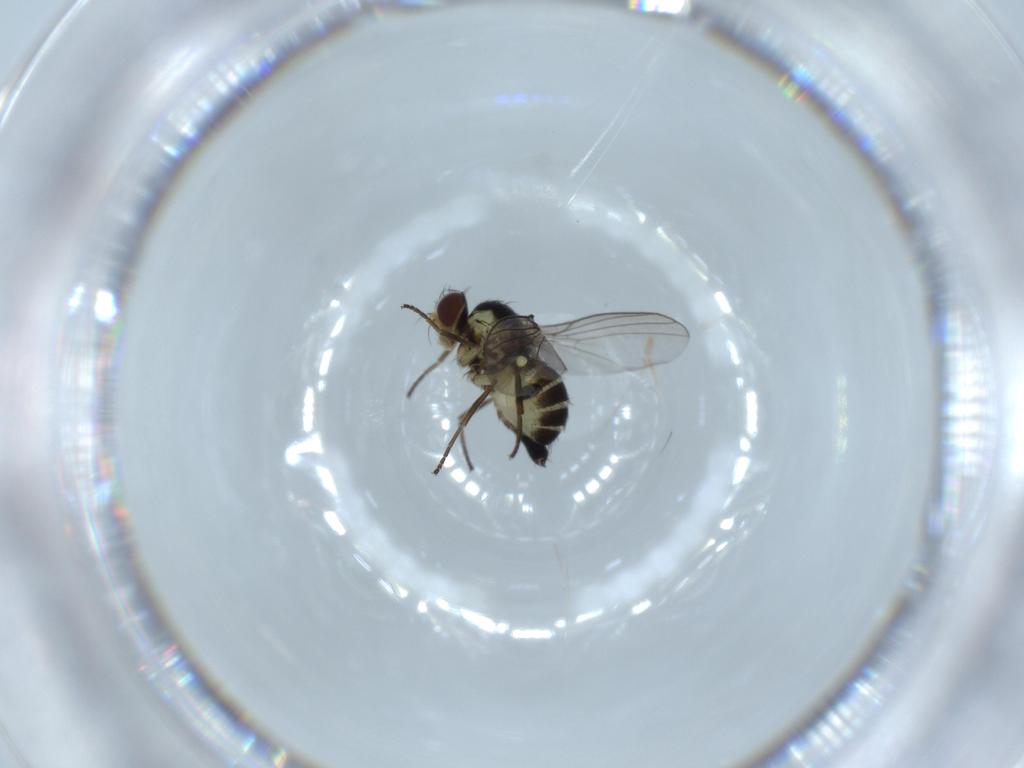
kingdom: Animalia
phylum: Arthropoda
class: Insecta
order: Diptera
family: Agromyzidae
